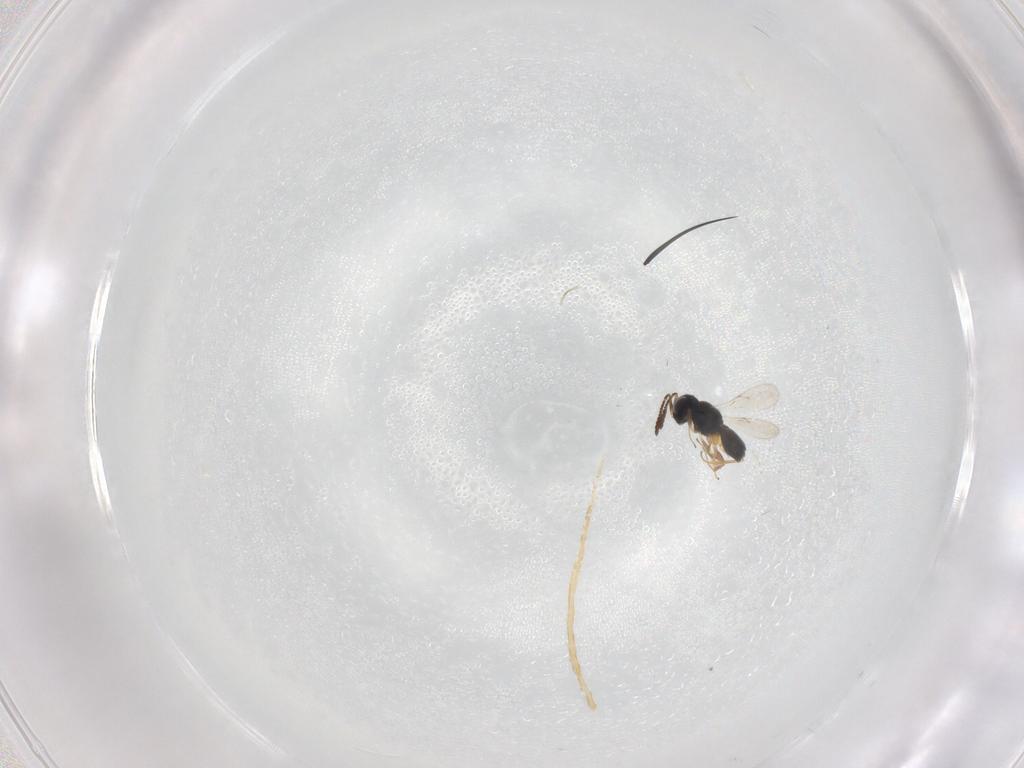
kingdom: Animalia
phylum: Arthropoda
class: Insecta
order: Hymenoptera
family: Scelionidae
